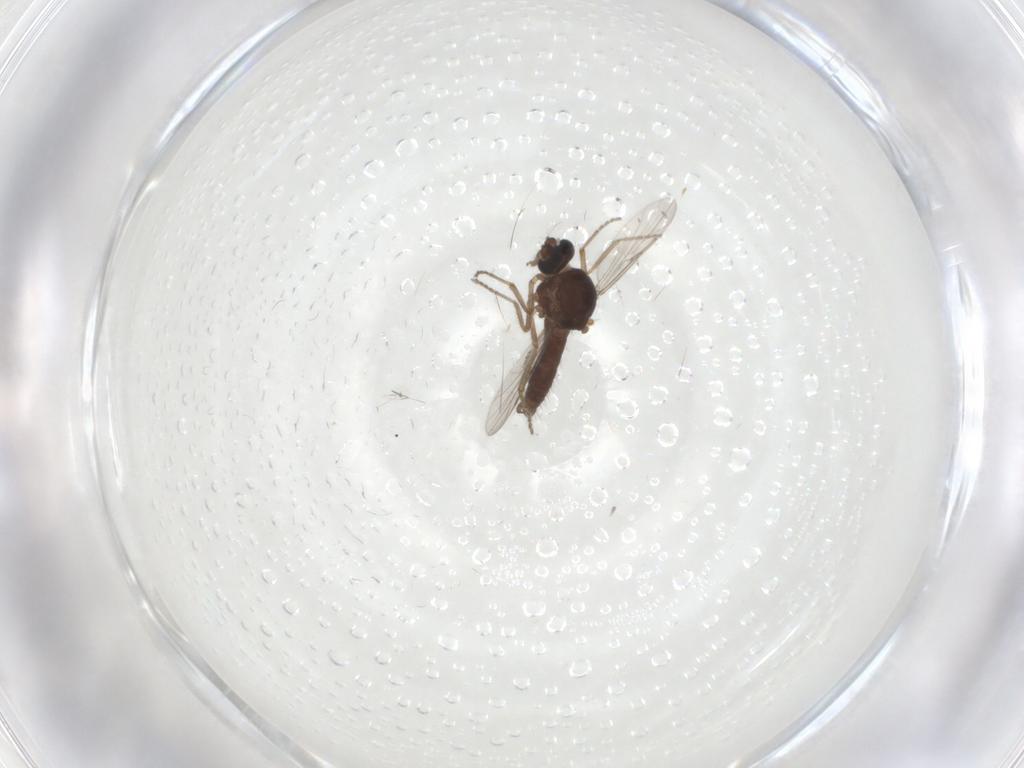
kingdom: Animalia
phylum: Arthropoda
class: Insecta
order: Diptera
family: Ceratopogonidae
